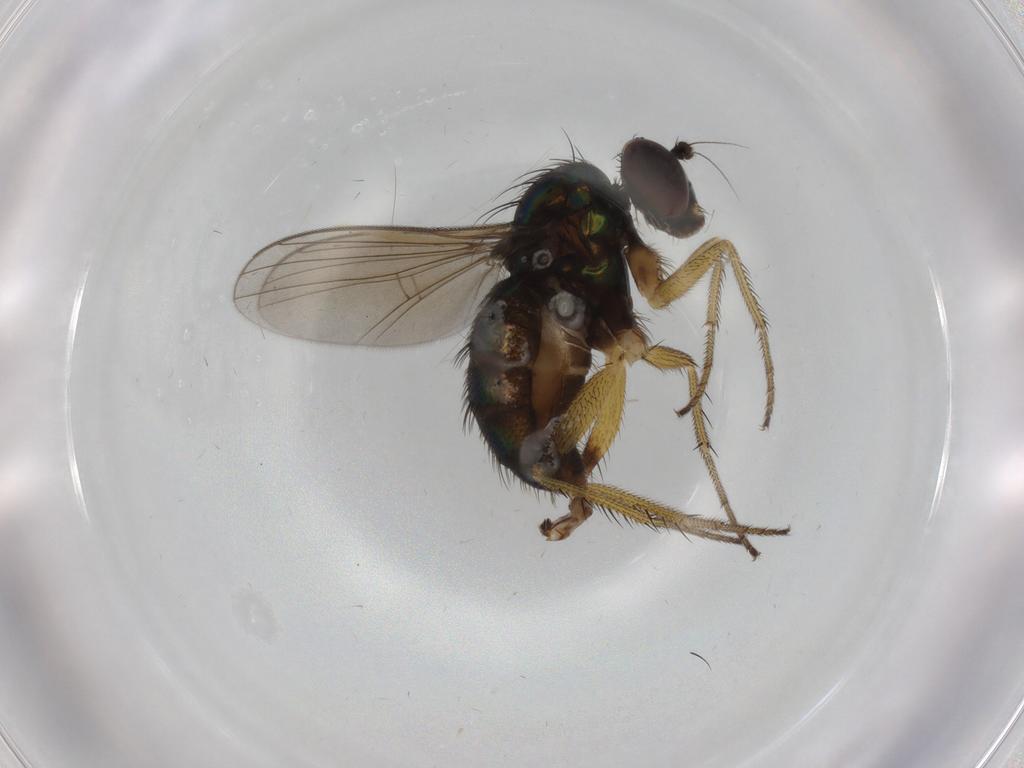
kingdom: Animalia
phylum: Arthropoda
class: Insecta
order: Diptera
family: Dolichopodidae
